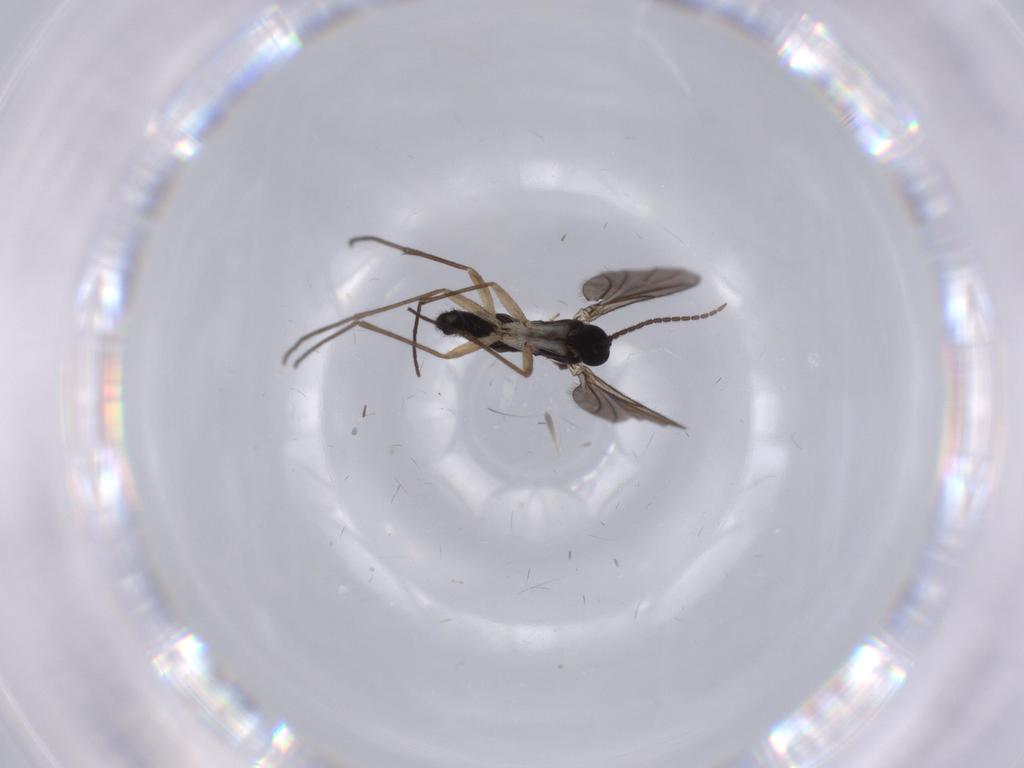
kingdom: Animalia
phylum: Arthropoda
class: Insecta
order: Diptera
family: Sciaridae
